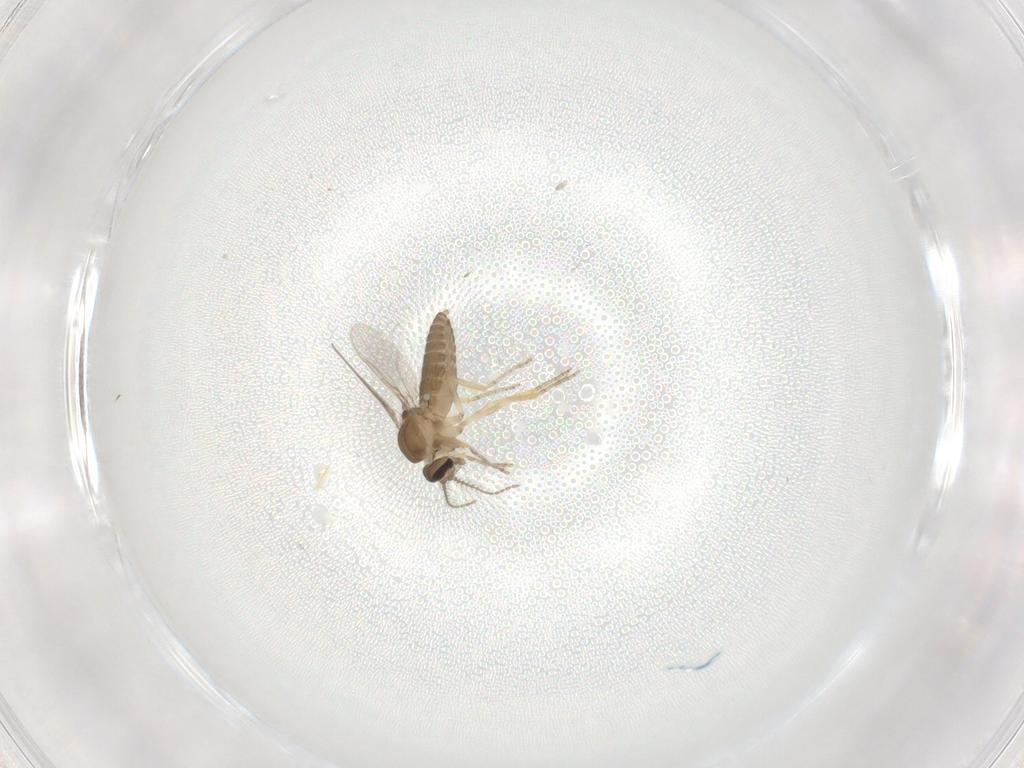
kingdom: Animalia
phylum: Arthropoda
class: Insecta
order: Diptera
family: Ceratopogonidae
